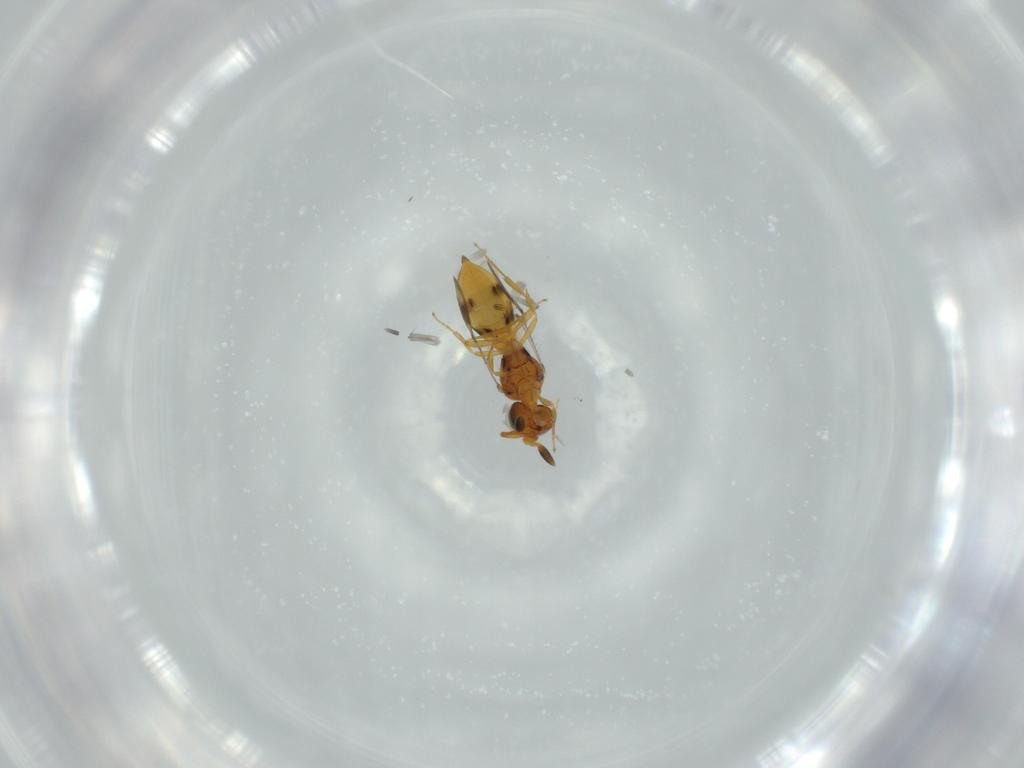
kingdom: Animalia
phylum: Arthropoda
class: Insecta
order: Hymenoptera
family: Scelionidae
